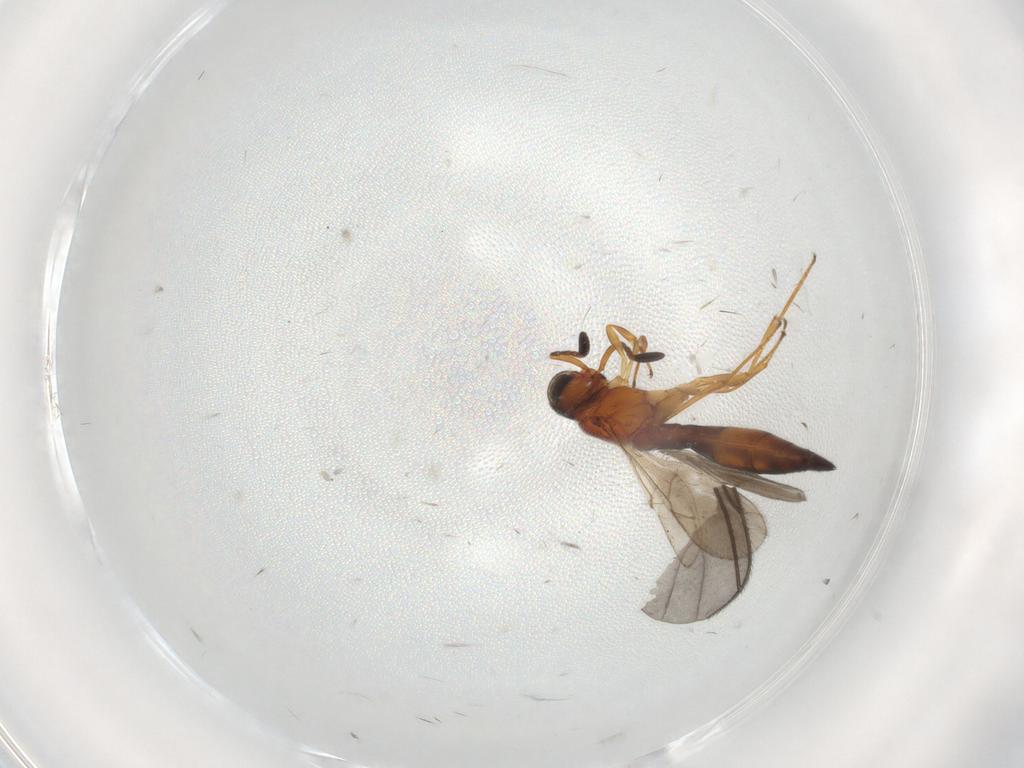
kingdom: Animalia
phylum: Arthropoda
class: Insecta
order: Hymenoptera
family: Scelionidae
